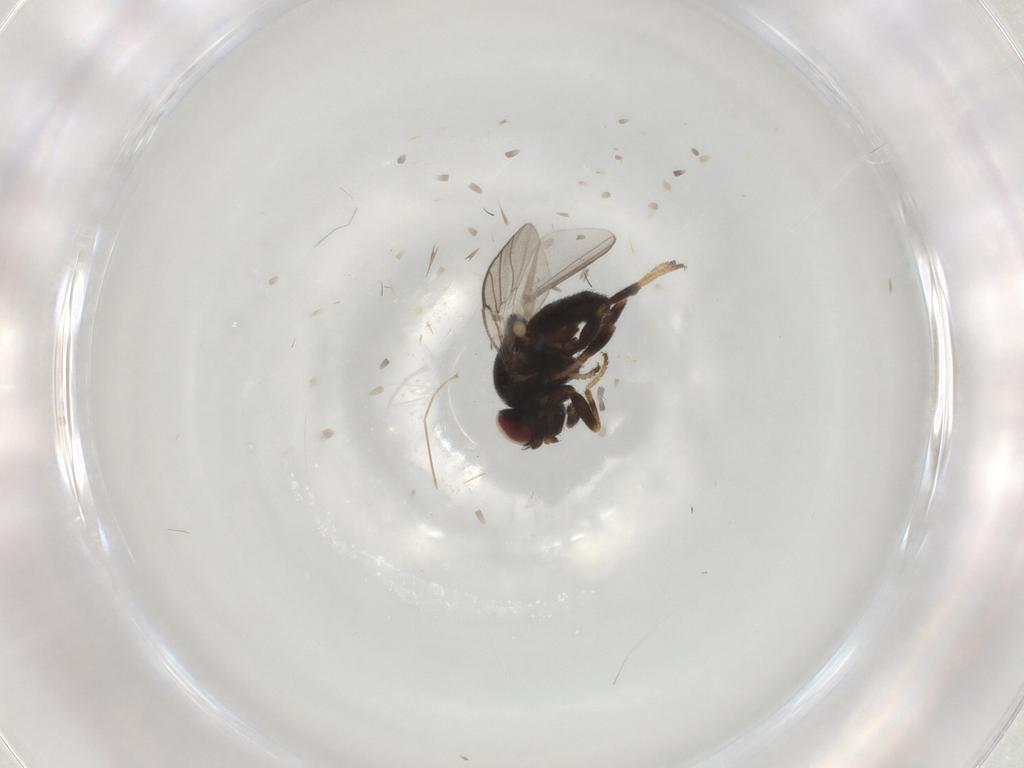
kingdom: Animalia
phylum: Arthropoda
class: Insecta
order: Diptera
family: Chloropidae
